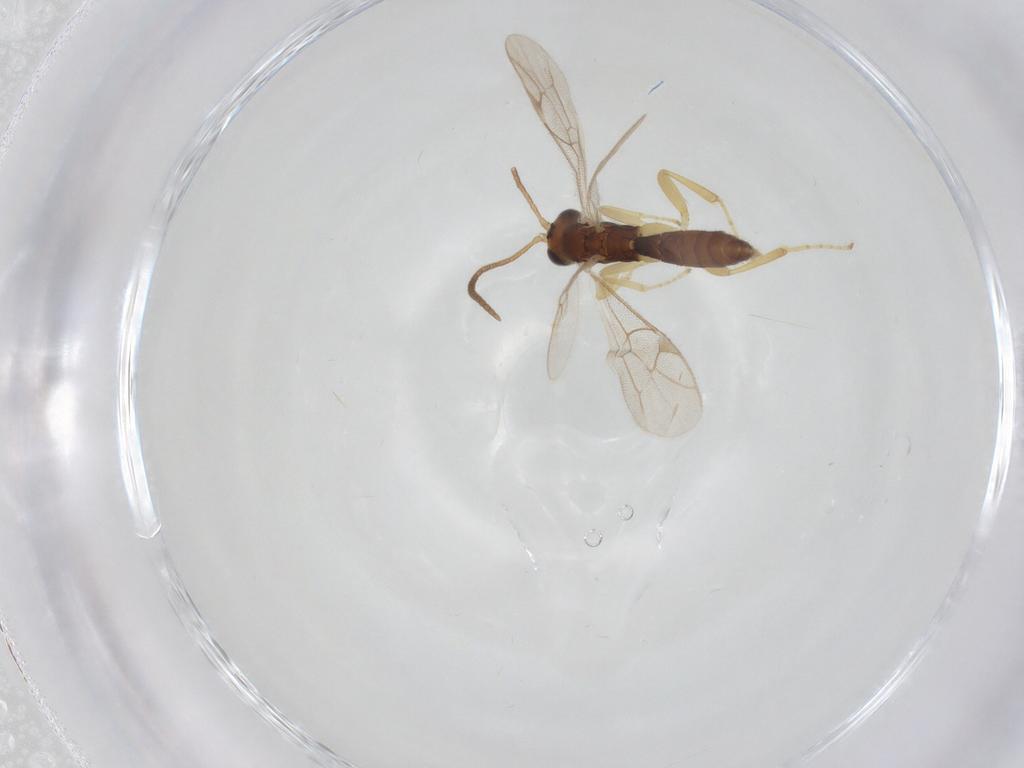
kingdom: Animalia
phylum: Arthropoda
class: Insecta
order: Hymenoptera
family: Ichneumonidae
